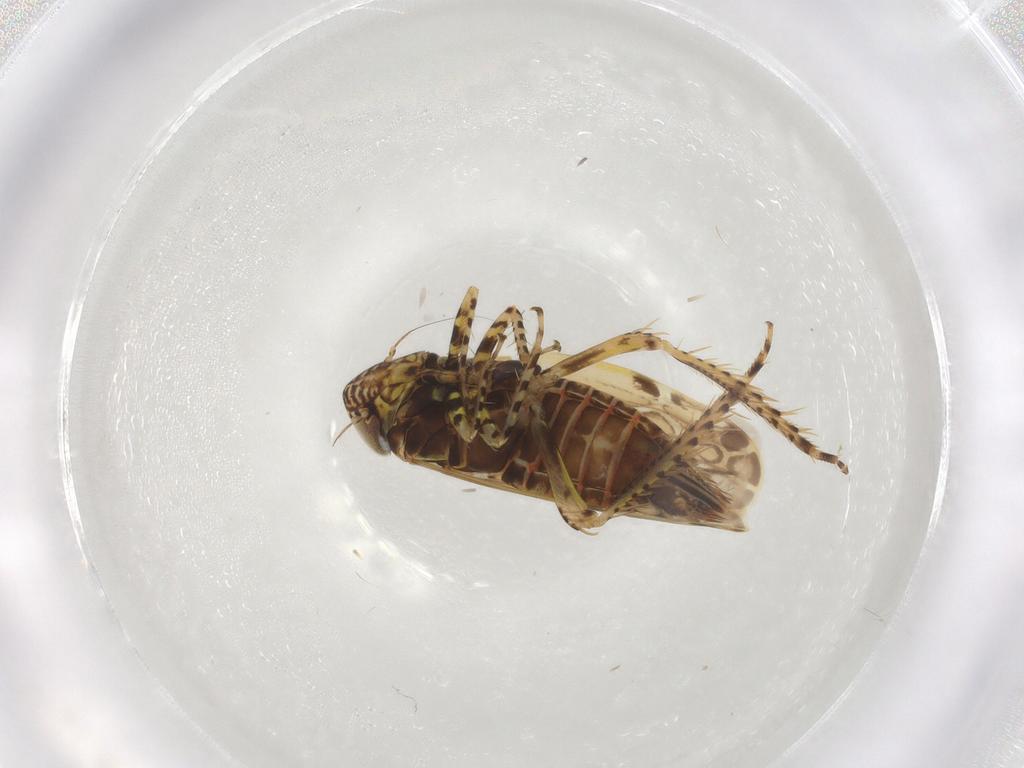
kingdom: Animalia
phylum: Arthropoda
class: Insecta
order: Hemiptera
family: Cicadellidae
